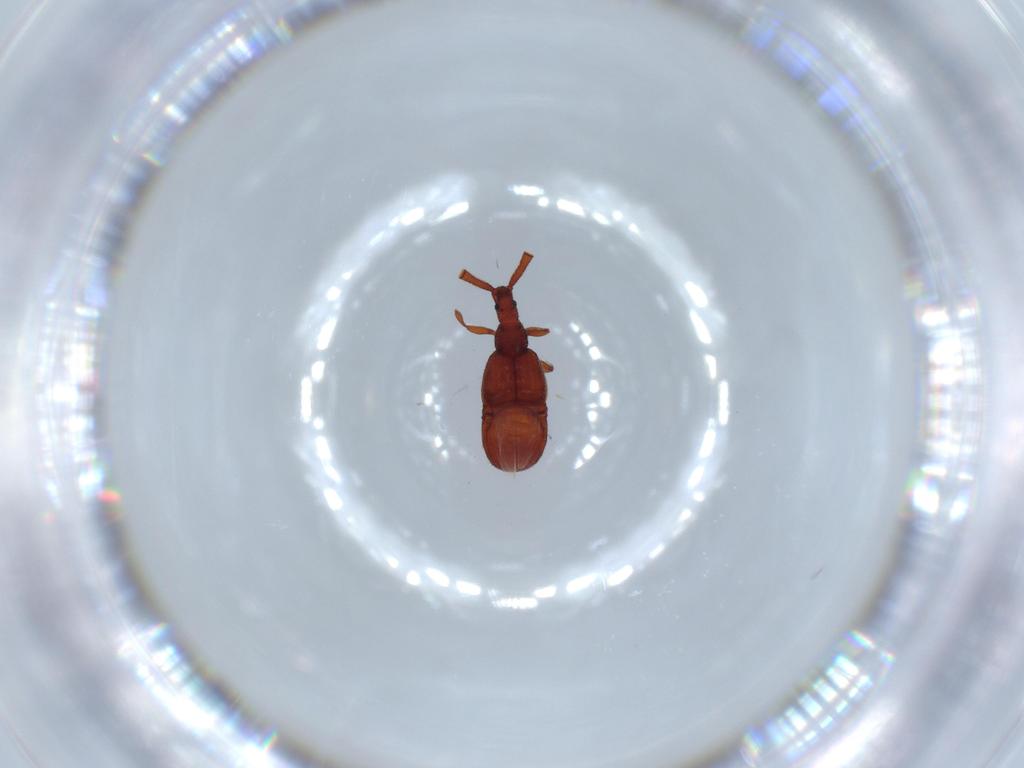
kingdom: Animalia
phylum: Arthropoda
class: Insecta
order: Coleoptera
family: Staphylinidae
